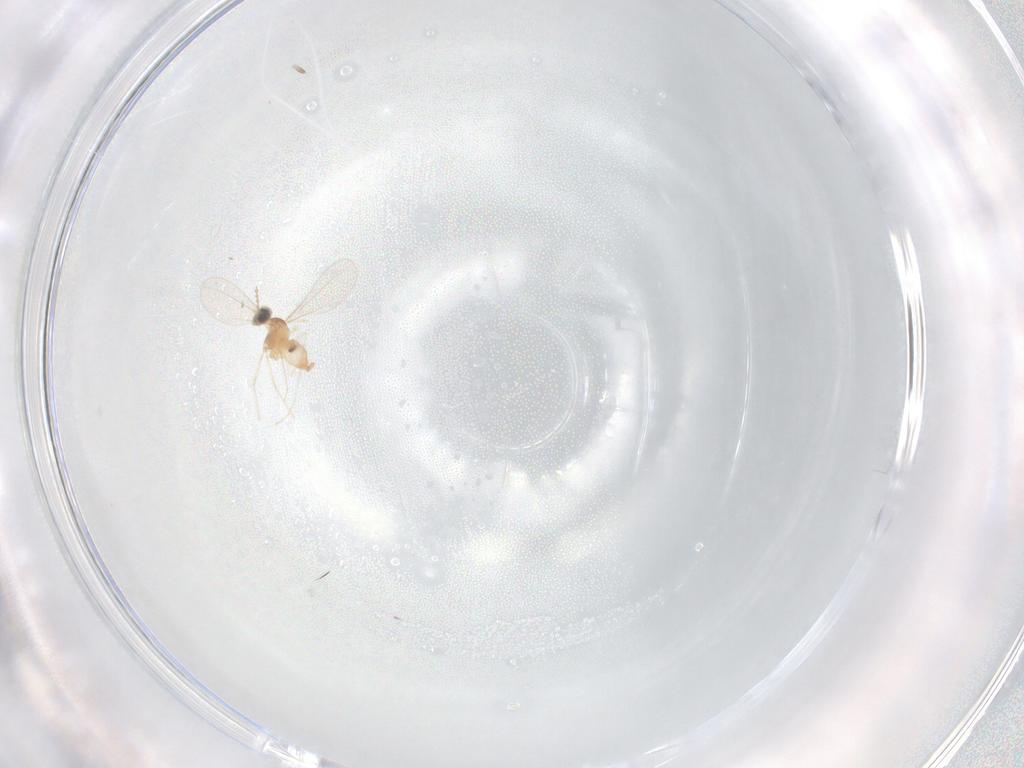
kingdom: Animalia
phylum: Arthropoda
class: Insecta
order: Diptera
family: Cecidomyiidae
